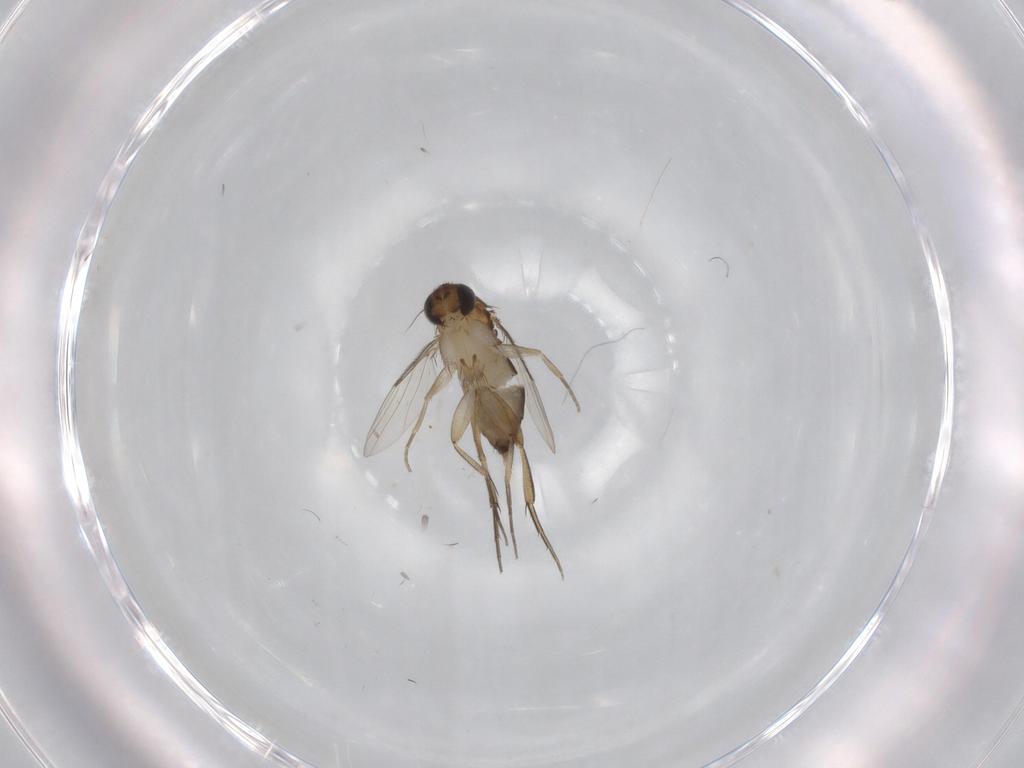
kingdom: Animalia
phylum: Arthropoda
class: Insecta
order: Diptera
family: Phoridae
